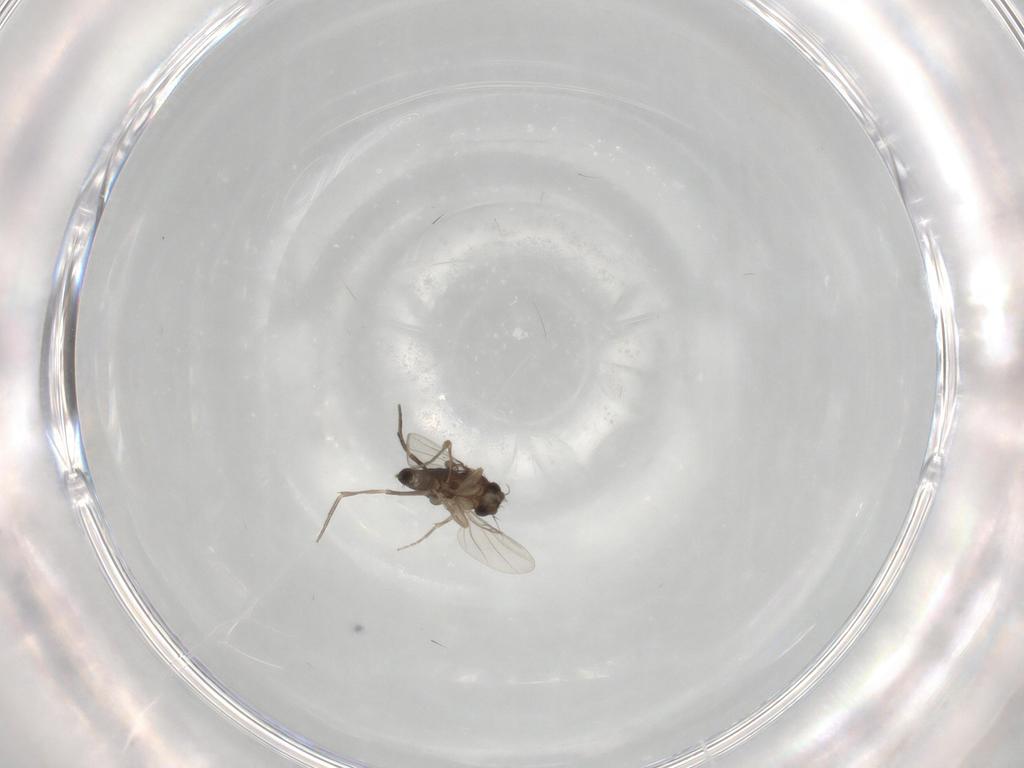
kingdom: Animalia
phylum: Arthropoda
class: Insecta
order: Diptera
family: Phoridae
